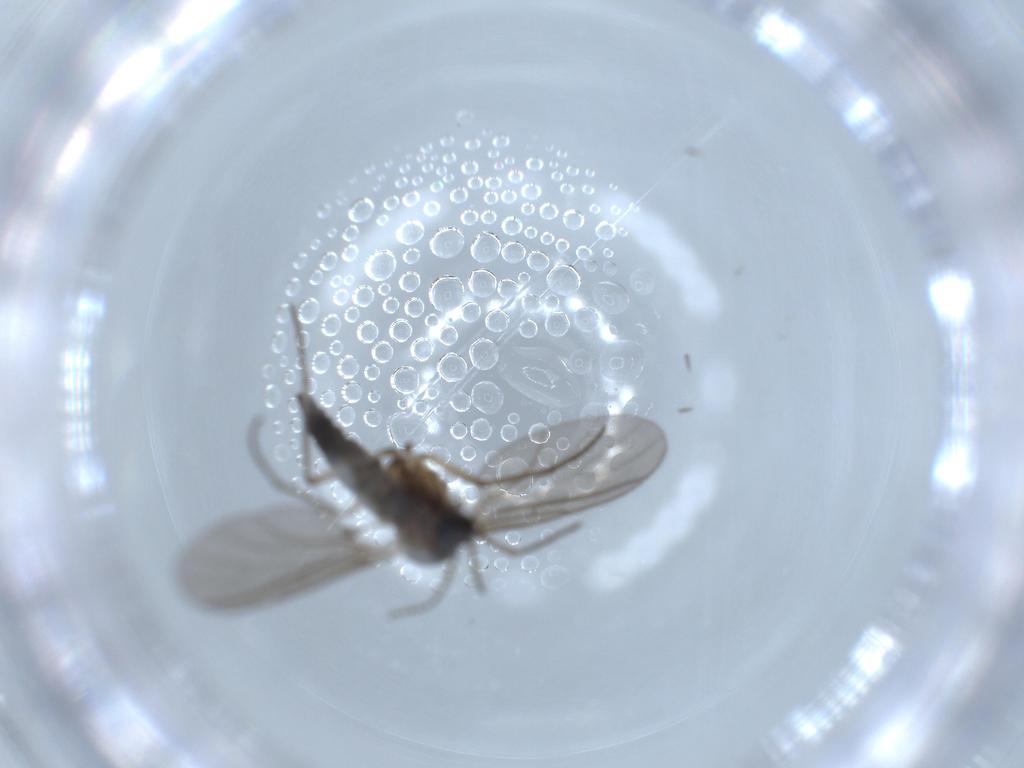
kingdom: Animalia
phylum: Arthropoda
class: Insecta
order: Diptera
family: Sciaridae
